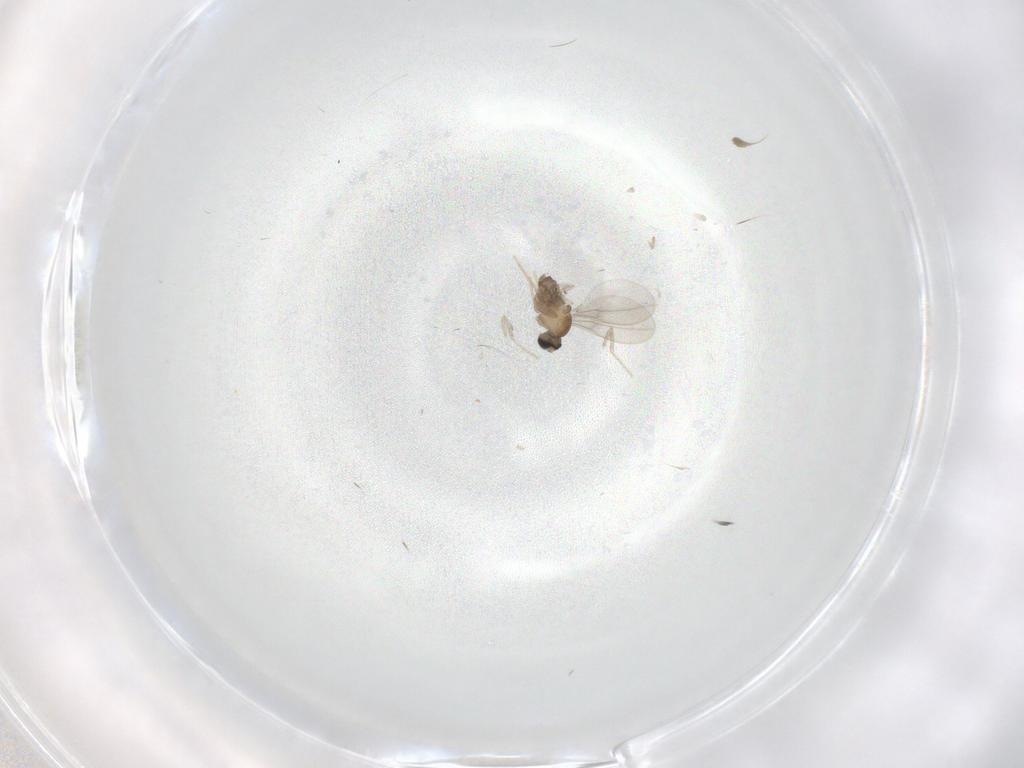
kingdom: Animalia
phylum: Arthropoda
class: Insecta
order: Diptera
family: Cecidomyiidae
